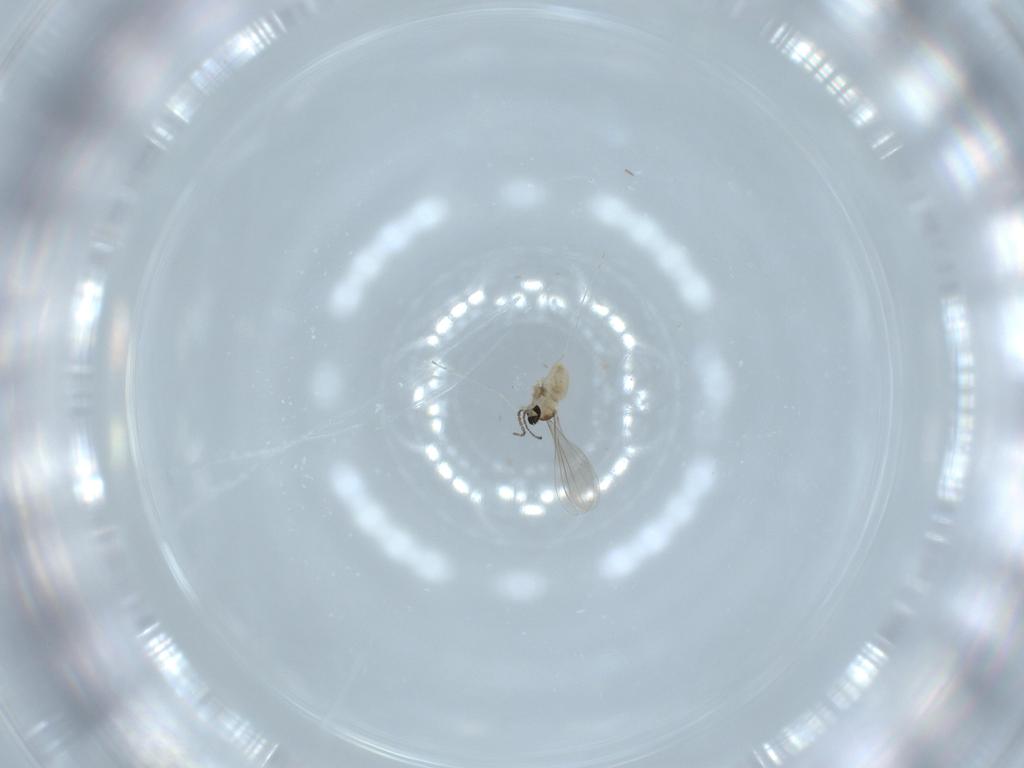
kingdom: Animalia
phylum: Arthropoda
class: Insecta
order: Diptera
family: Cecidomyiidae
